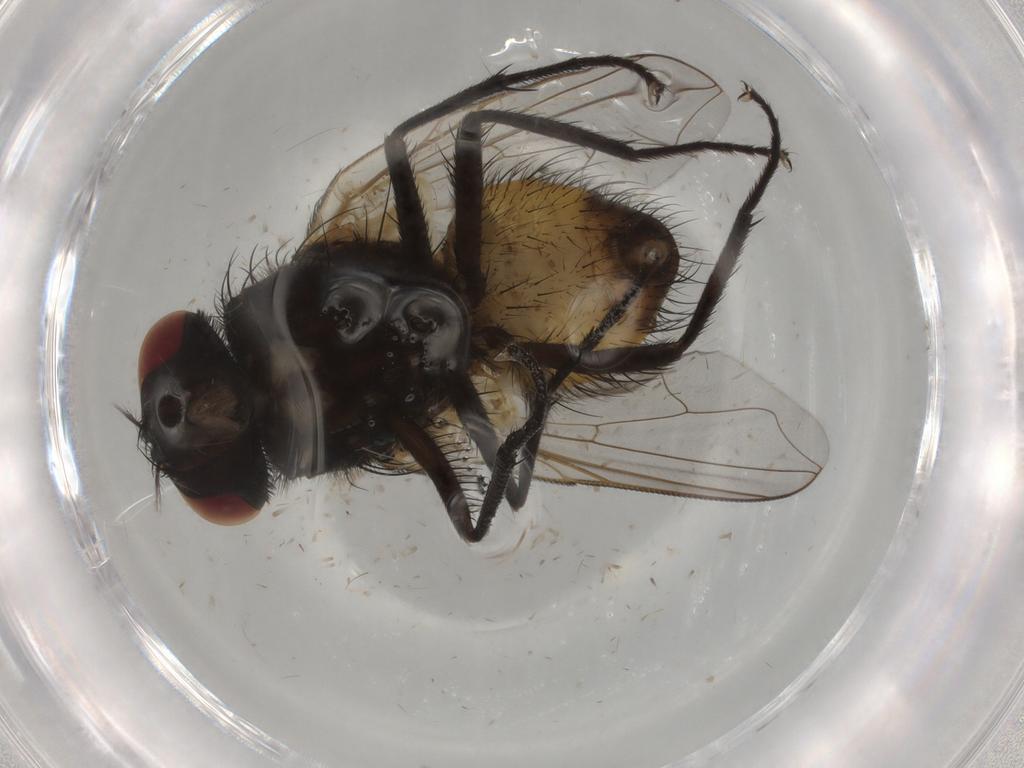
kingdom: Animalia
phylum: Arthropoda
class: Insecta
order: Diptera
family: Muscidae
